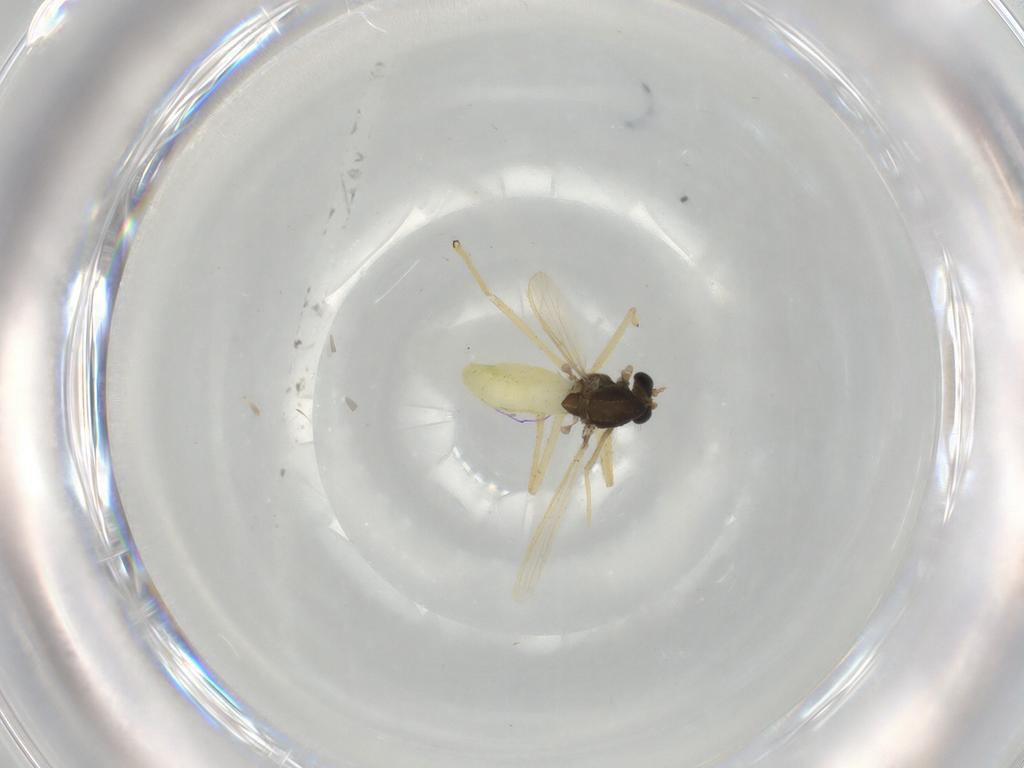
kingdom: Animalia
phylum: Arthropoda
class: Insecta
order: Diptera
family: Chironomidae
